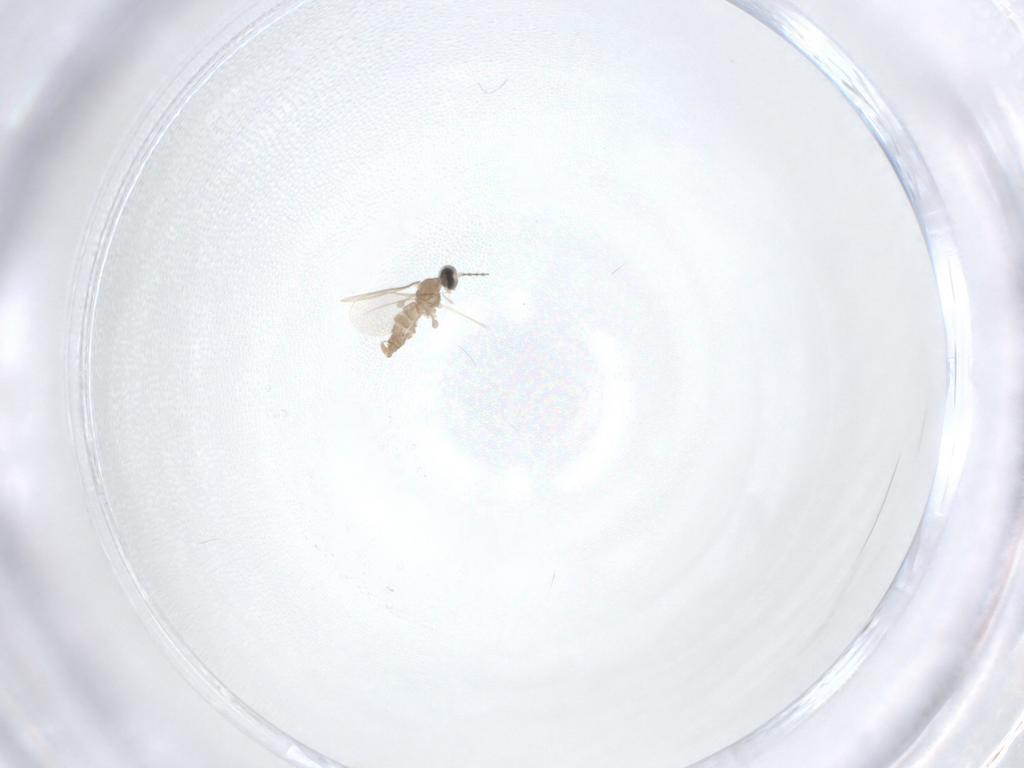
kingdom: Animalia
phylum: Arthropoda
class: Insecta
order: Diptera
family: Cecidomyiidae
